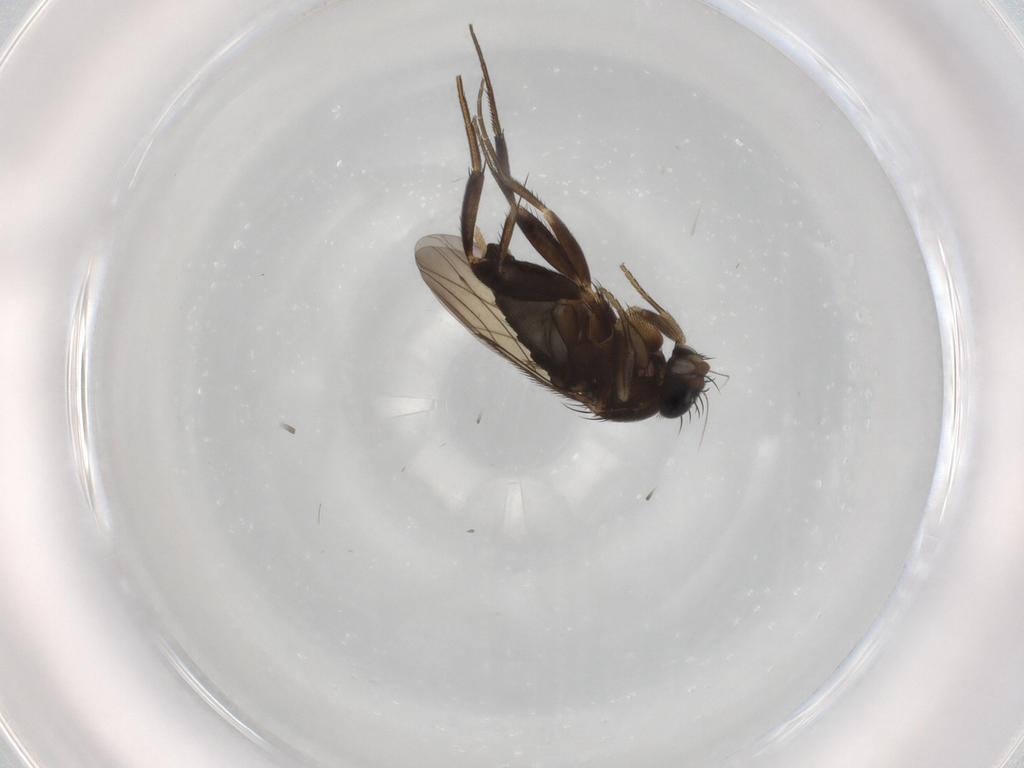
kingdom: Animalia
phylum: Arthropoda
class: Insecta
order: Diptera
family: Phoridae
